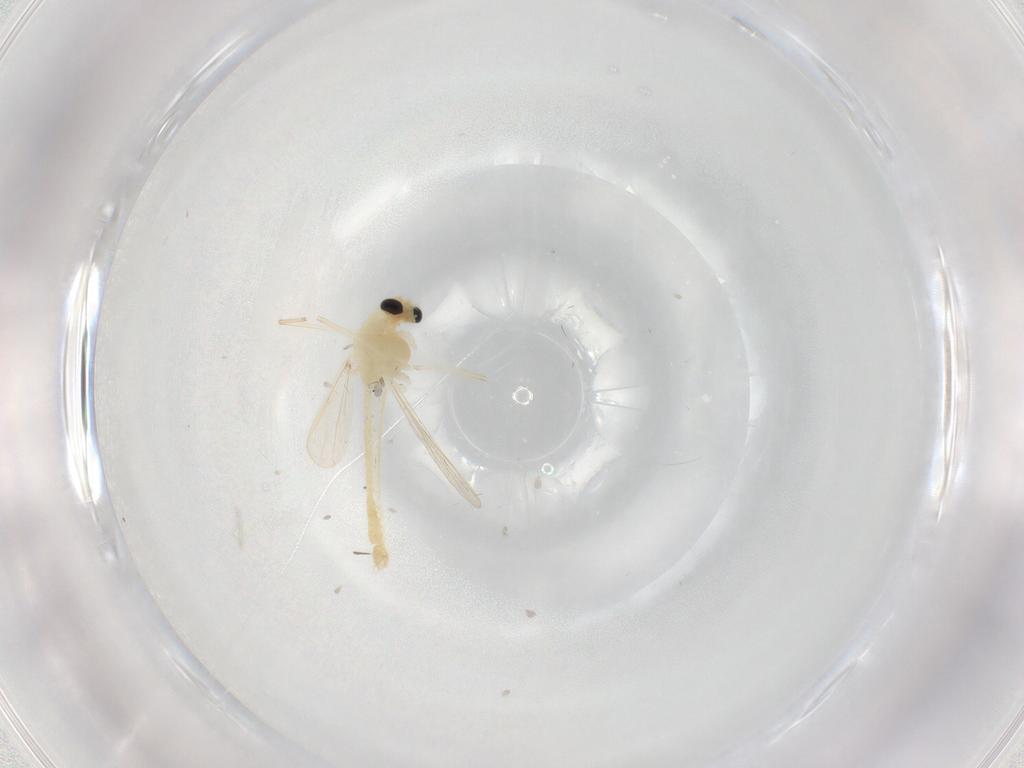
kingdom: Animalia
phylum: Arthropoda
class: Insecta
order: Diptera
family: Chironomidae
